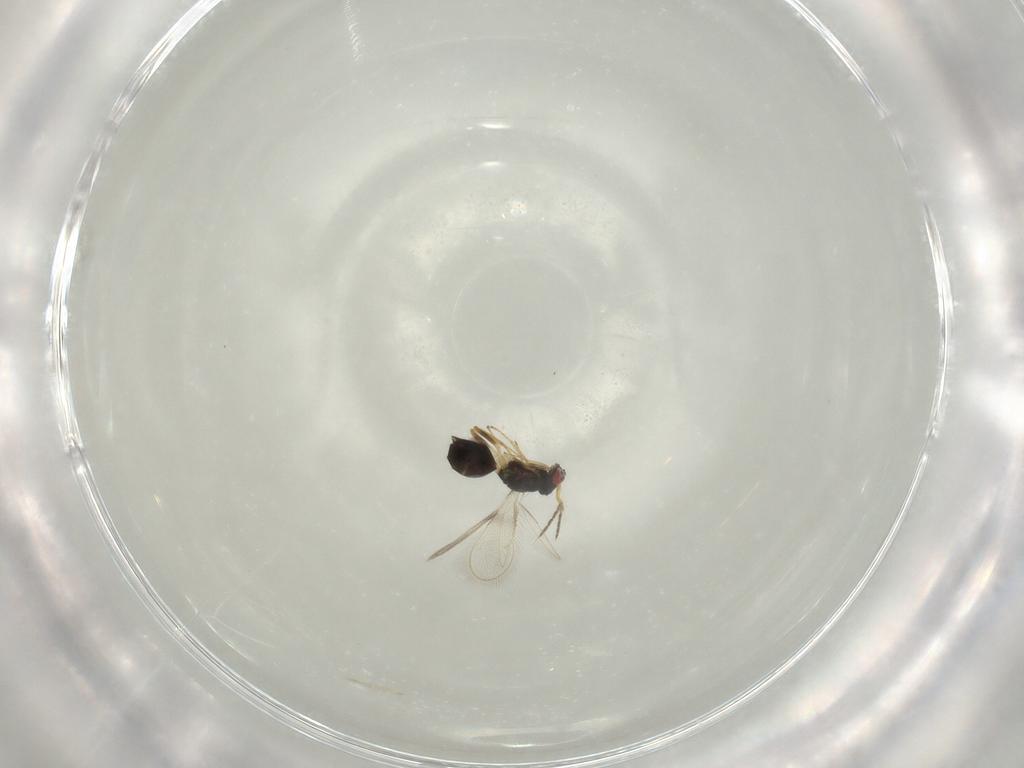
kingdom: Animalia
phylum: Arthropoda
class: Insecta
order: Hymenoptera
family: Eulophidae
